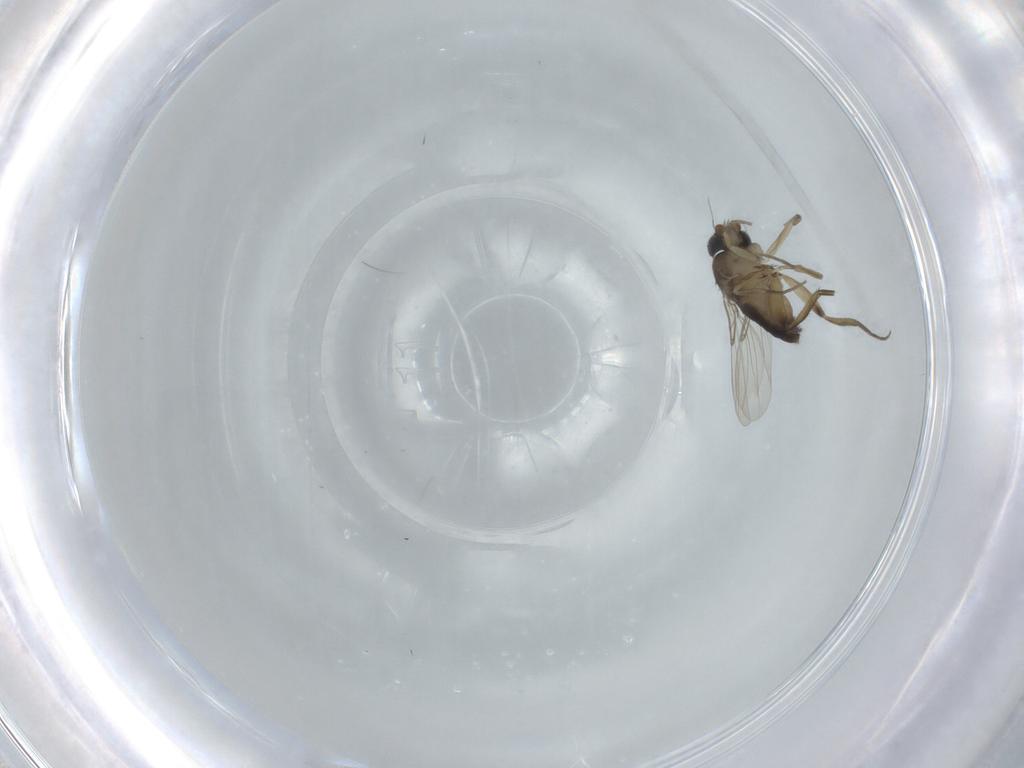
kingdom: Animalia
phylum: Arthropoda
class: Insecta
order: Diptera
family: Phoridae
